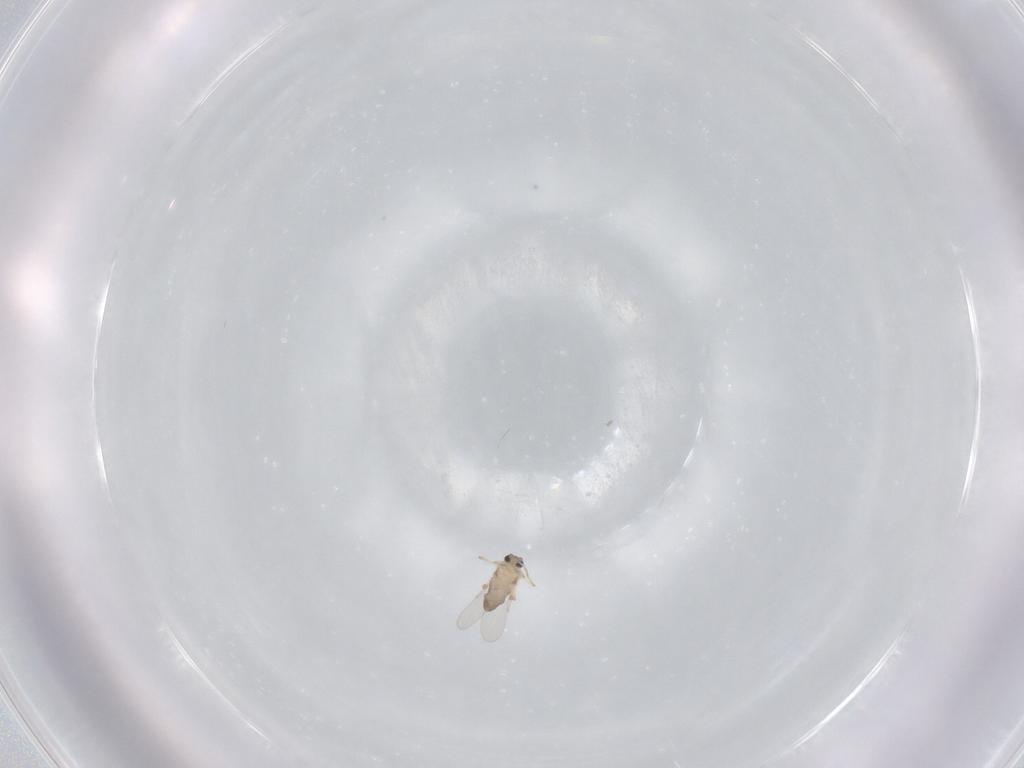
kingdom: Animalia
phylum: Arthropoda
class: Insecta
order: Diptera
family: Ceratopogonidae
